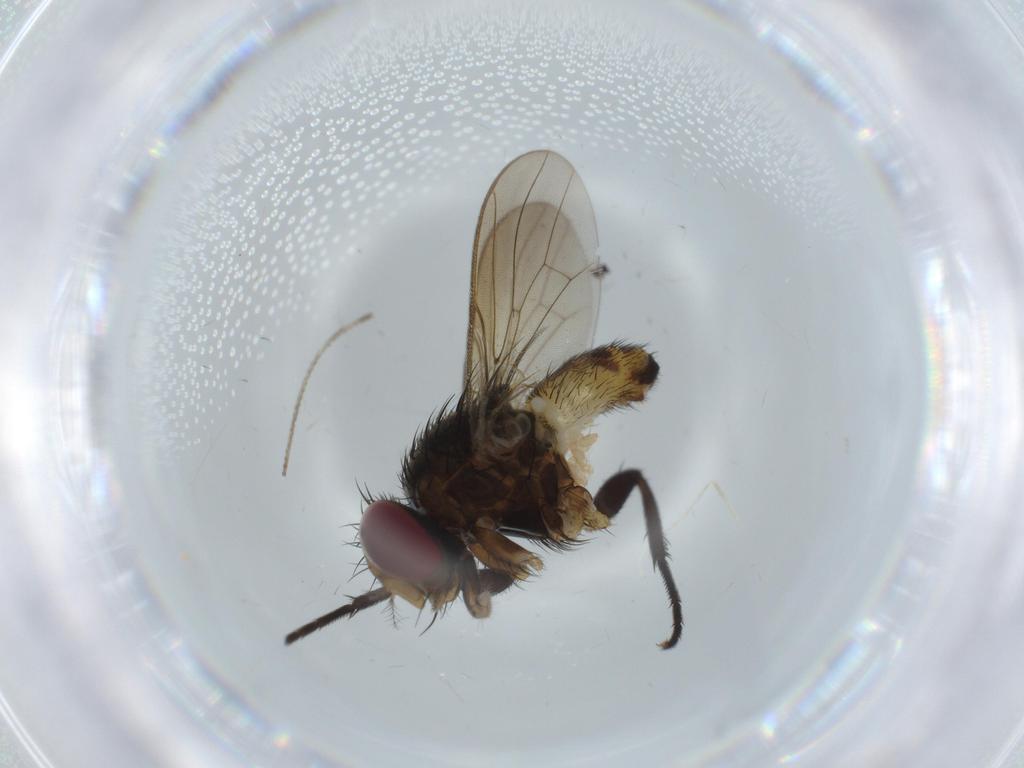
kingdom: Animalia
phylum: Arthropoda
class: Insecta
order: Diptera
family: Anthomyiidae
